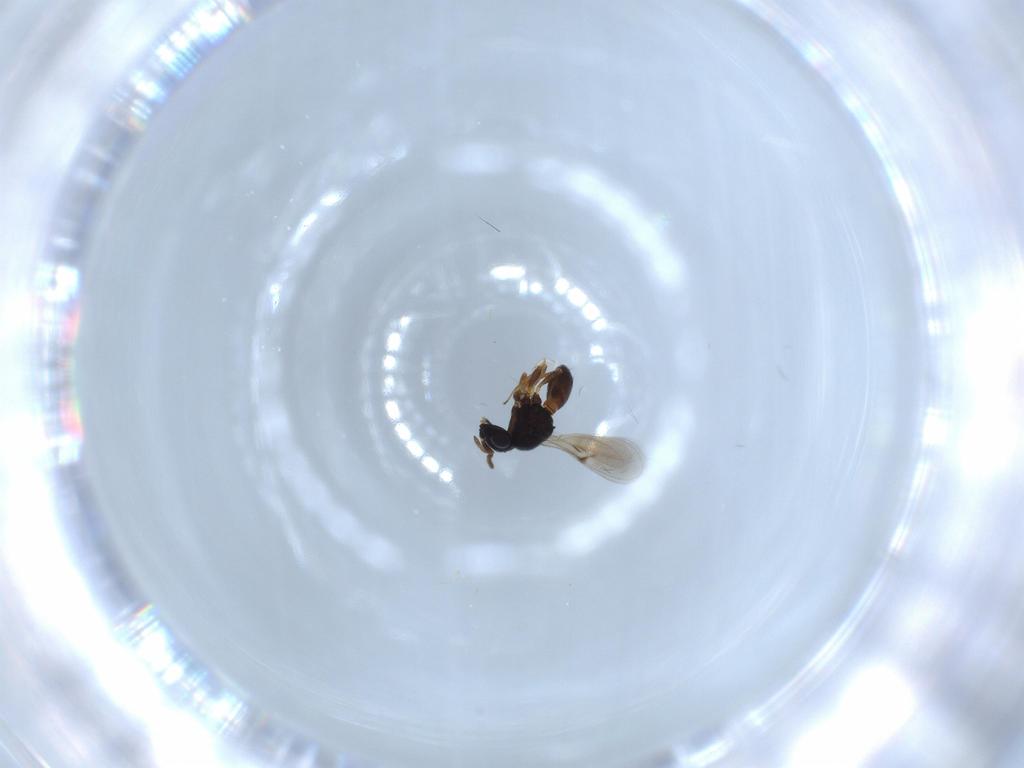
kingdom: Animalia
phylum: Arthropoda
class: Insecta
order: Hymenoptera
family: Scelionidae
